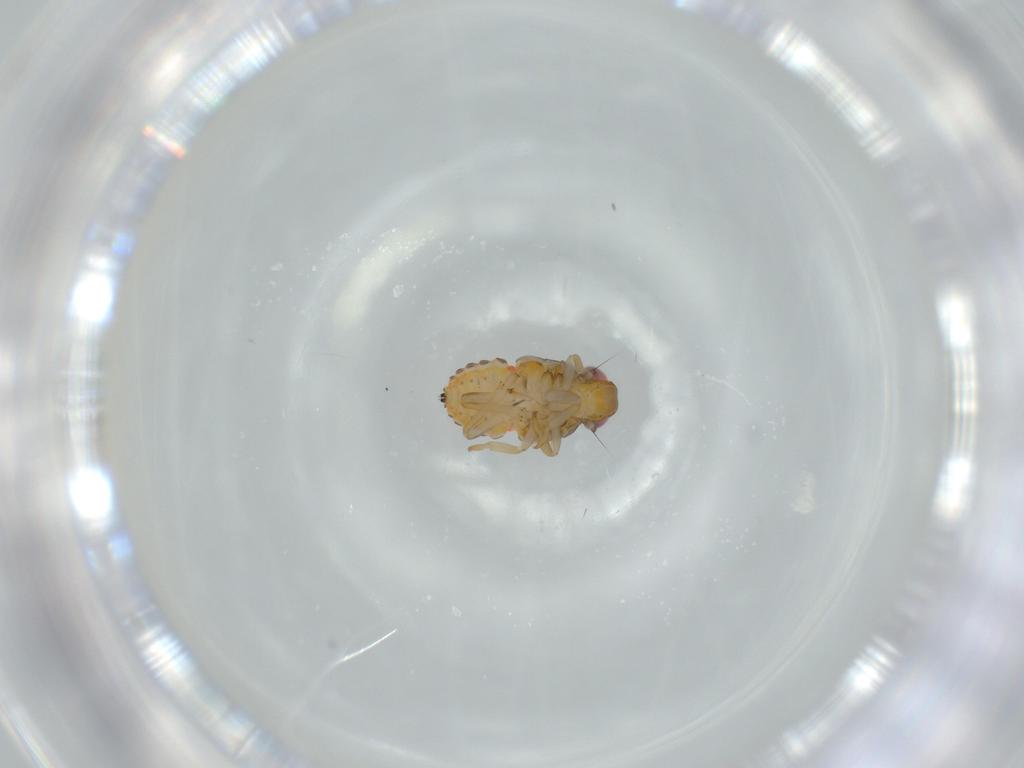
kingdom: Animalia
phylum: Arthropoda
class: Insecta
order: Hemiptera
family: Issidae
